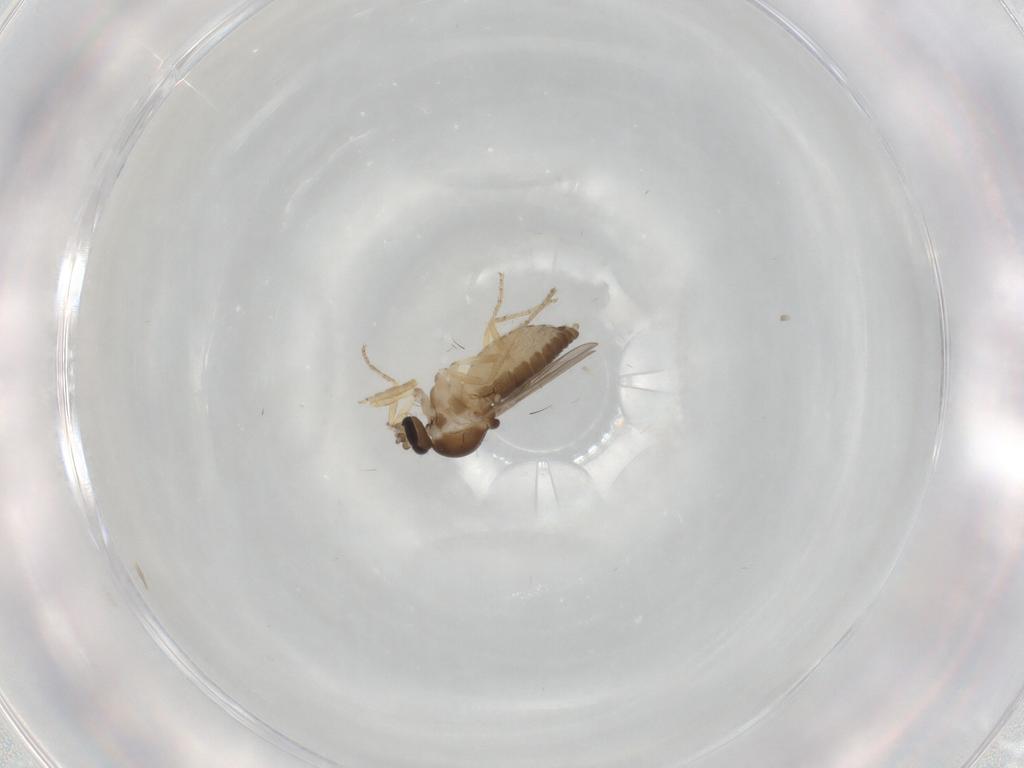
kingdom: Animalia
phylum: Arthropoda
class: Insecta
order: Diptera
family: Ceratopogonidae
